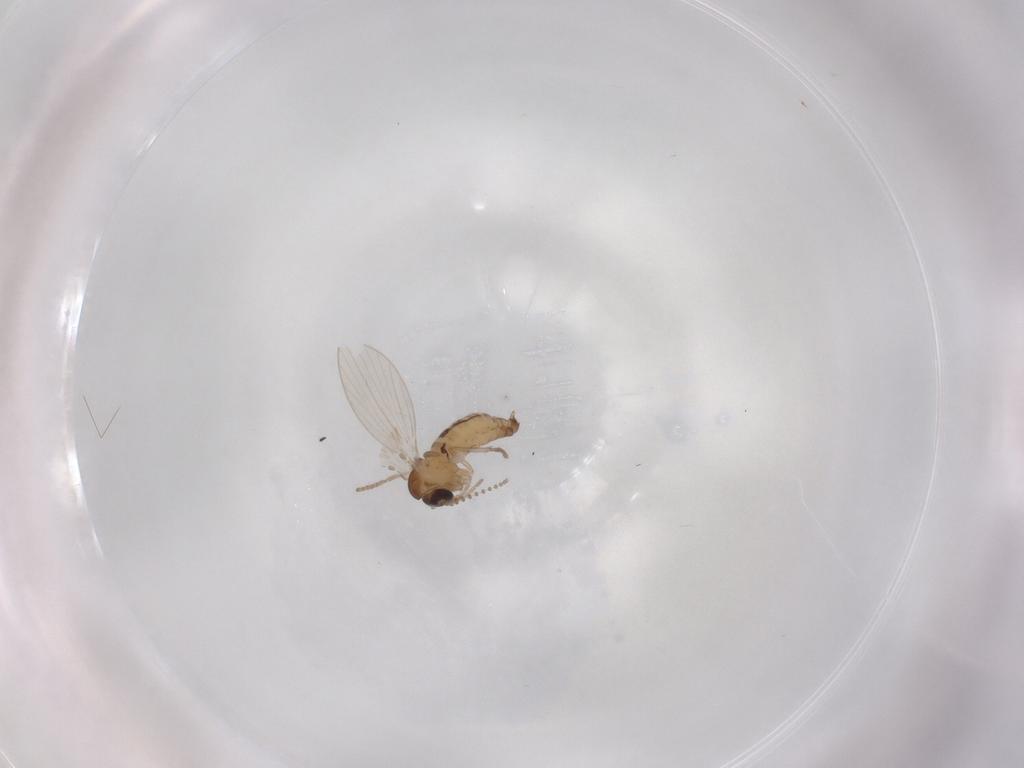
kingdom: Animalia
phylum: Arthropoda
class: Insecta
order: Diptera
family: Psychodidae
